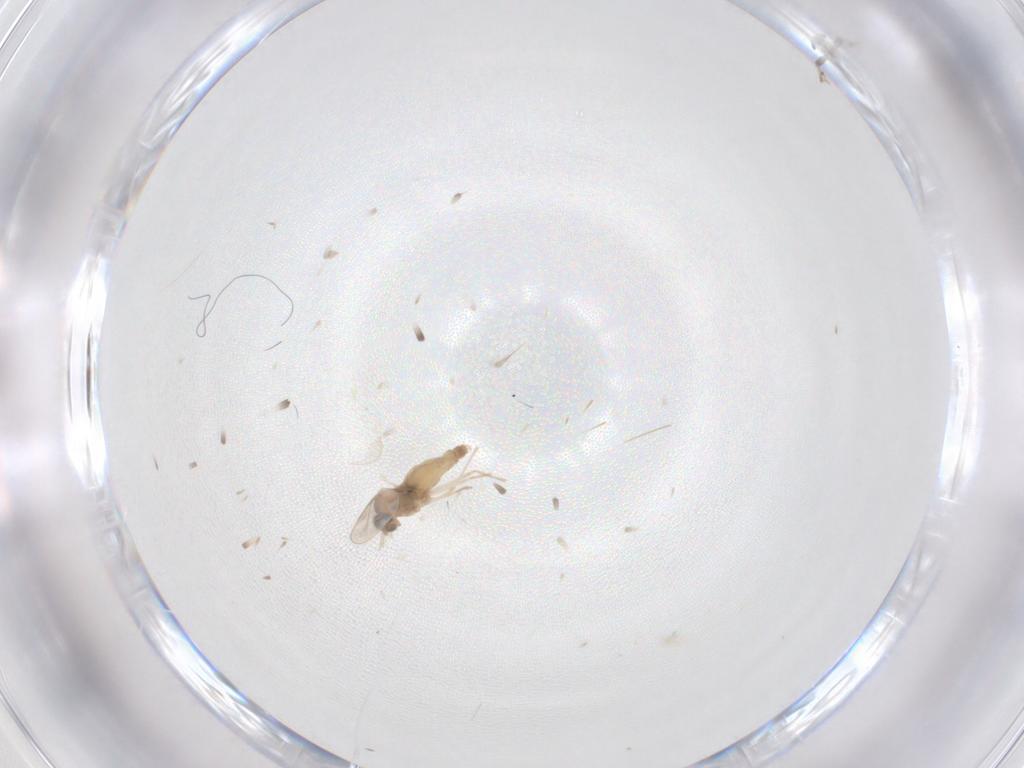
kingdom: Animalia
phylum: Arthropoda
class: Insecta
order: Diptera
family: Cecidomyiidae
